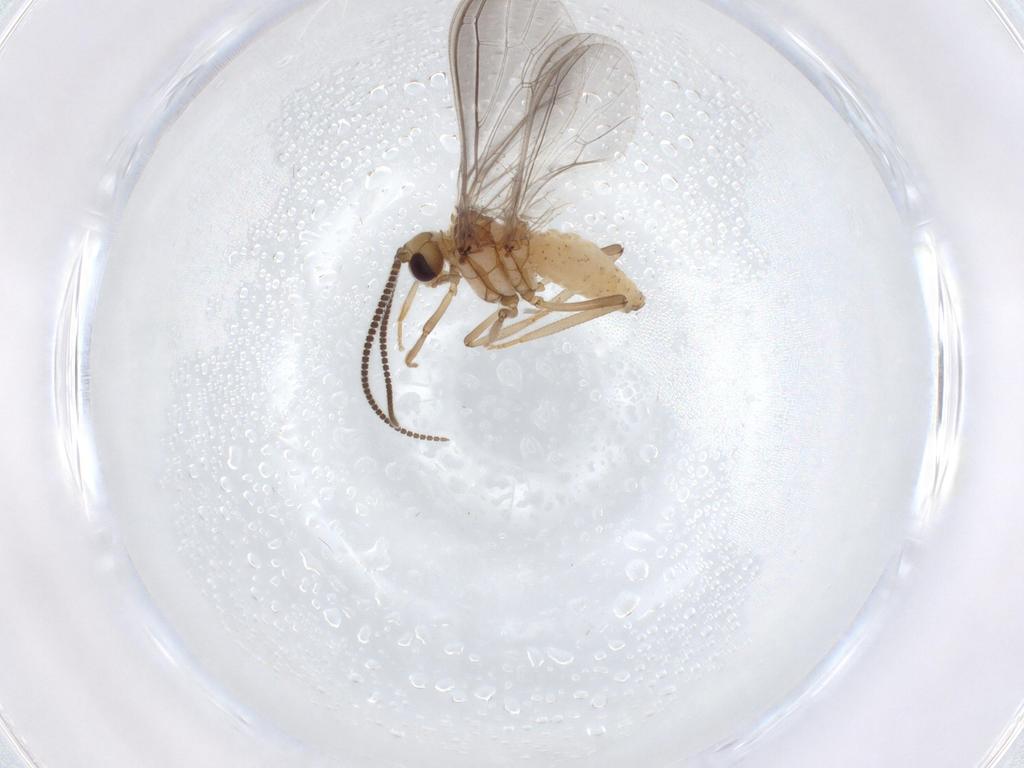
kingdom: Animalia
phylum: Arthropoda
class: Insecta
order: Neuroptera
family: Coniopterygidae
